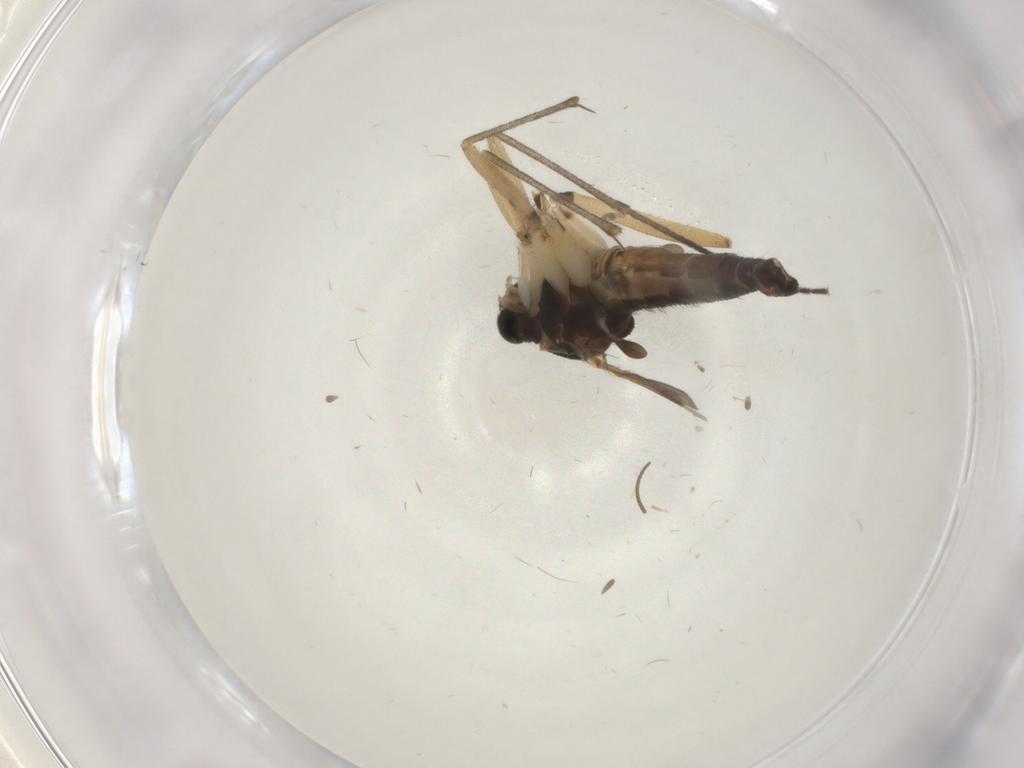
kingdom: Animalia
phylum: Arthropoda
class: Insecta
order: Diptera
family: Sciaridae
